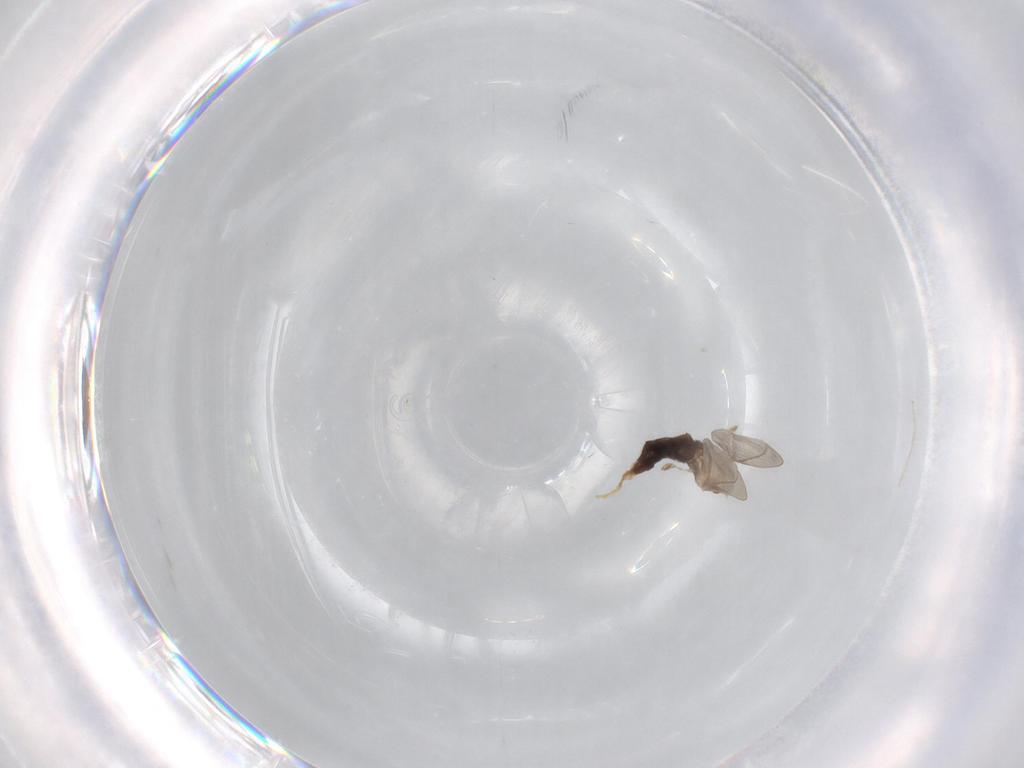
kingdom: Animalia
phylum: Arthropoda
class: Insecta
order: Diptera
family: Cecidomyiidae
